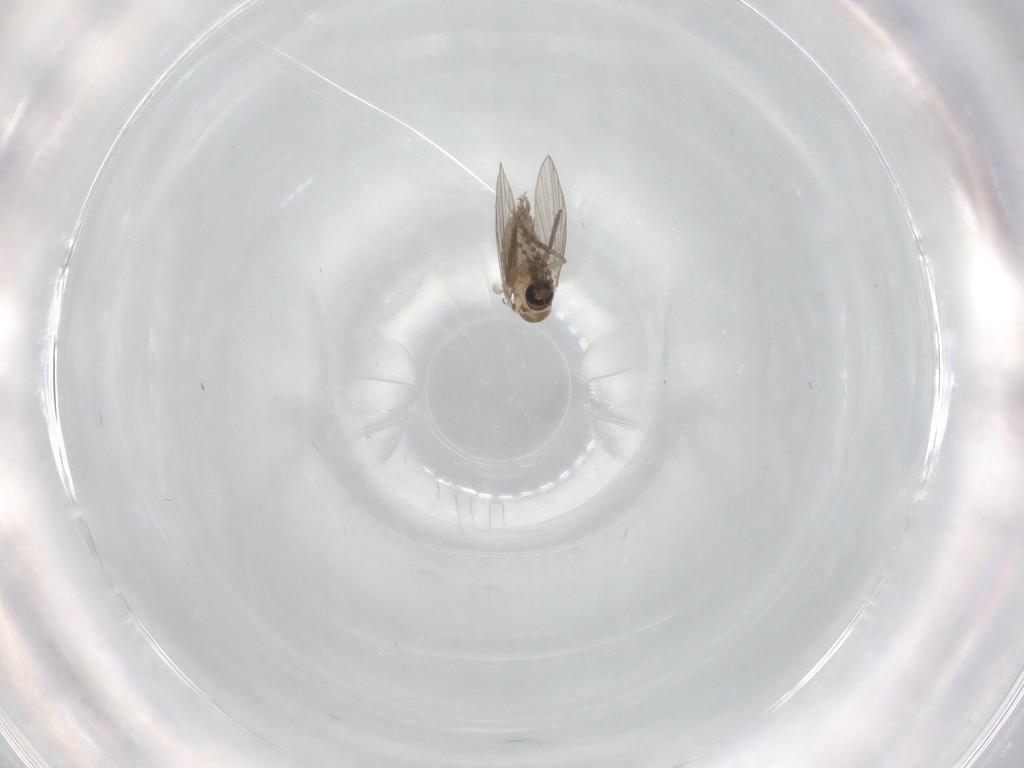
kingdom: Animalia
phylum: Arthropoda
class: Insecta
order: Diptera
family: Psychodidae
